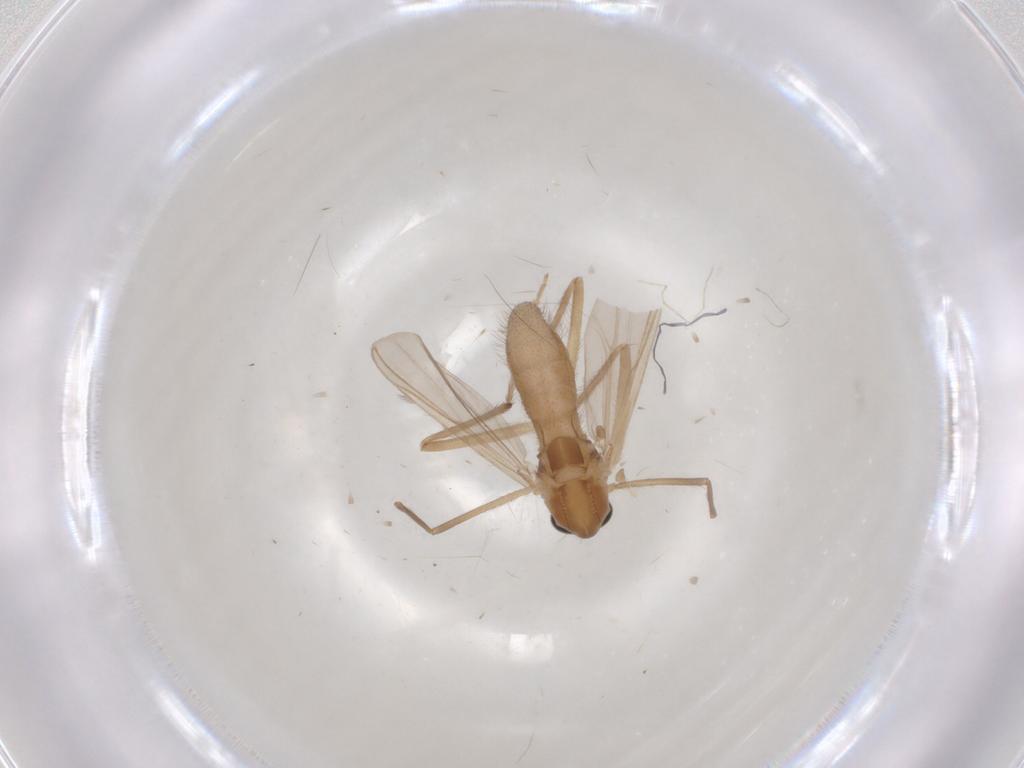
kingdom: Animalia
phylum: Arthropoda
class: Insecta
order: Diptera
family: Chironomidae
